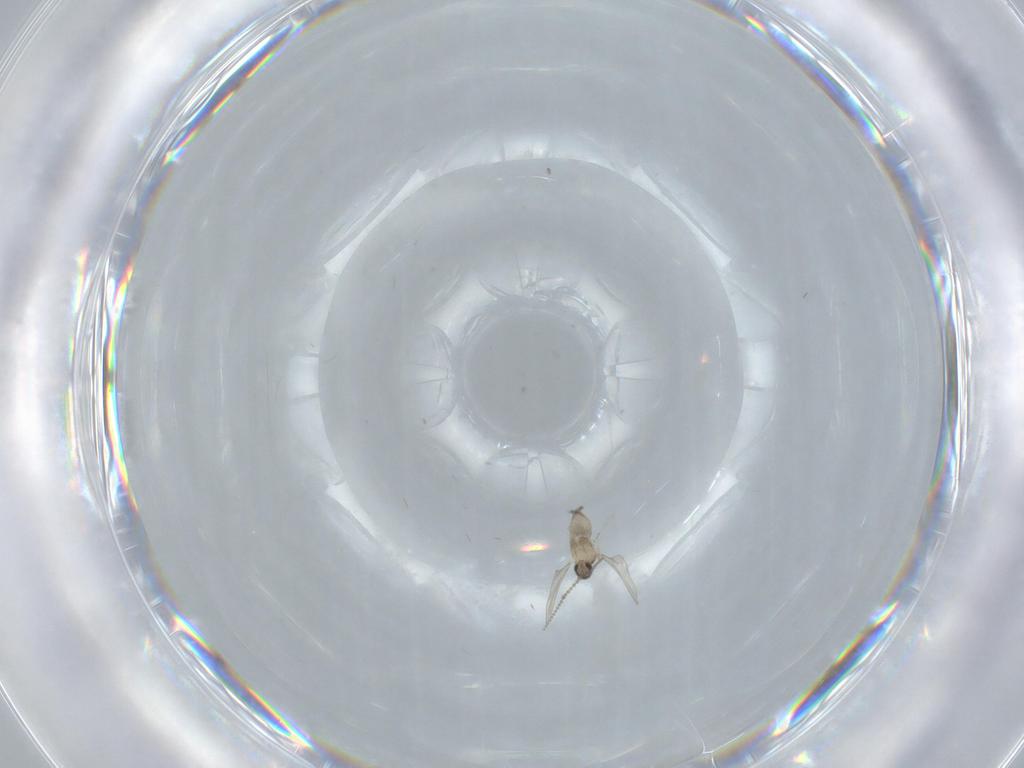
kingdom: Animalia
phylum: Arthropoda
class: Insecta
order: Diptera
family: Cecidomyiidae
